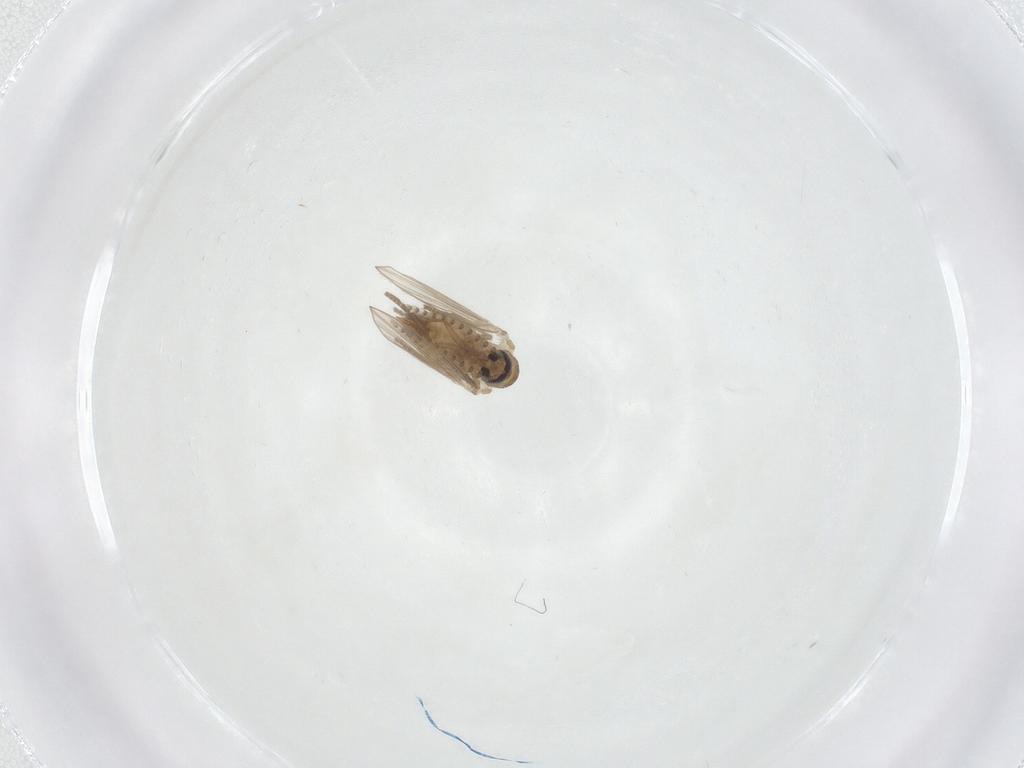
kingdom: Animalia
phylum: Arthropoda
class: Insecta
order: Diptera
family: Psychodidae
